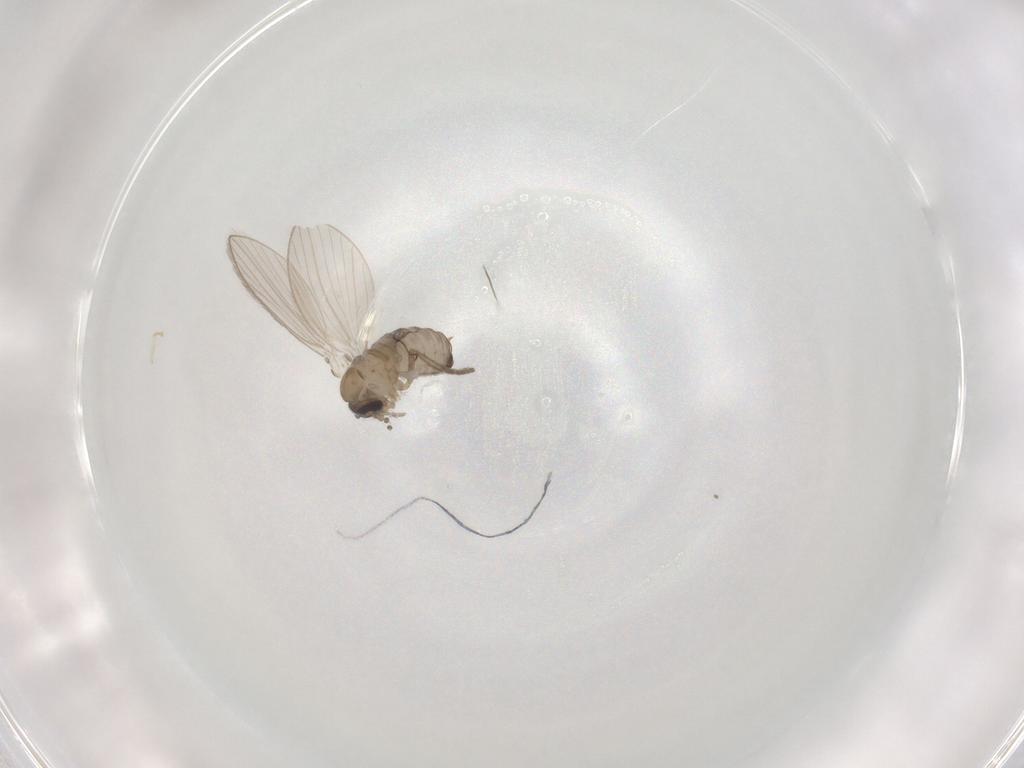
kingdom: Animalia
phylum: Arthropoda
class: Insecta
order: Diptera
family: Psychodidae
